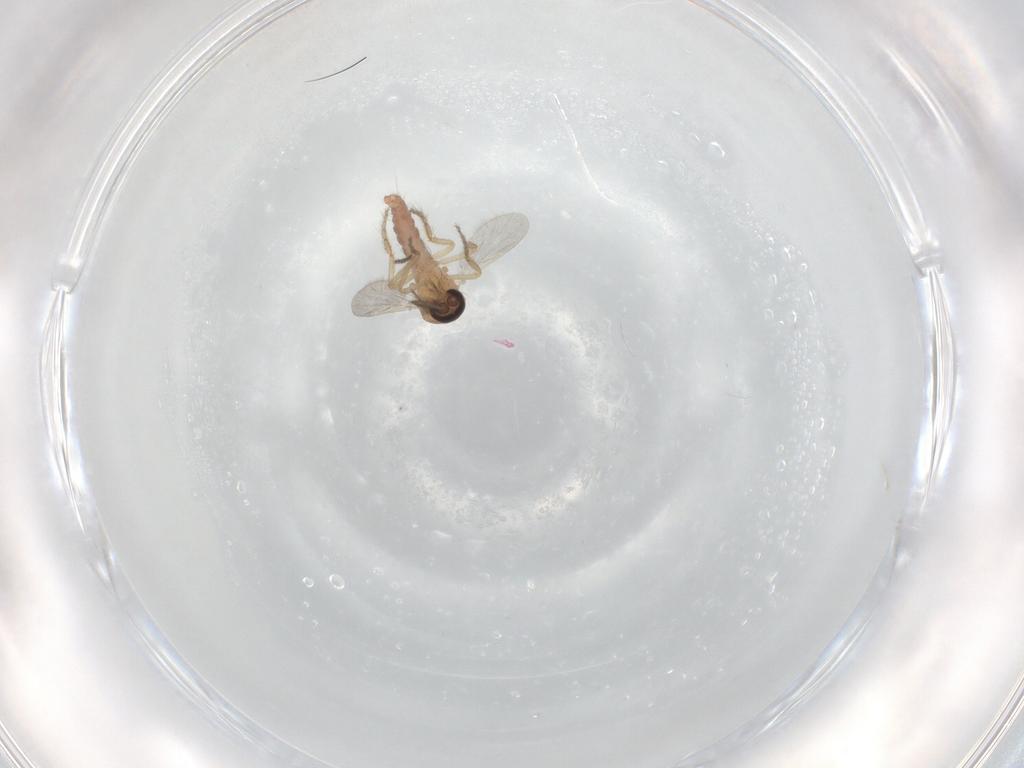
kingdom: Animalia
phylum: Arthropoda
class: Insecta
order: Diptera
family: Ceratopogonidae
